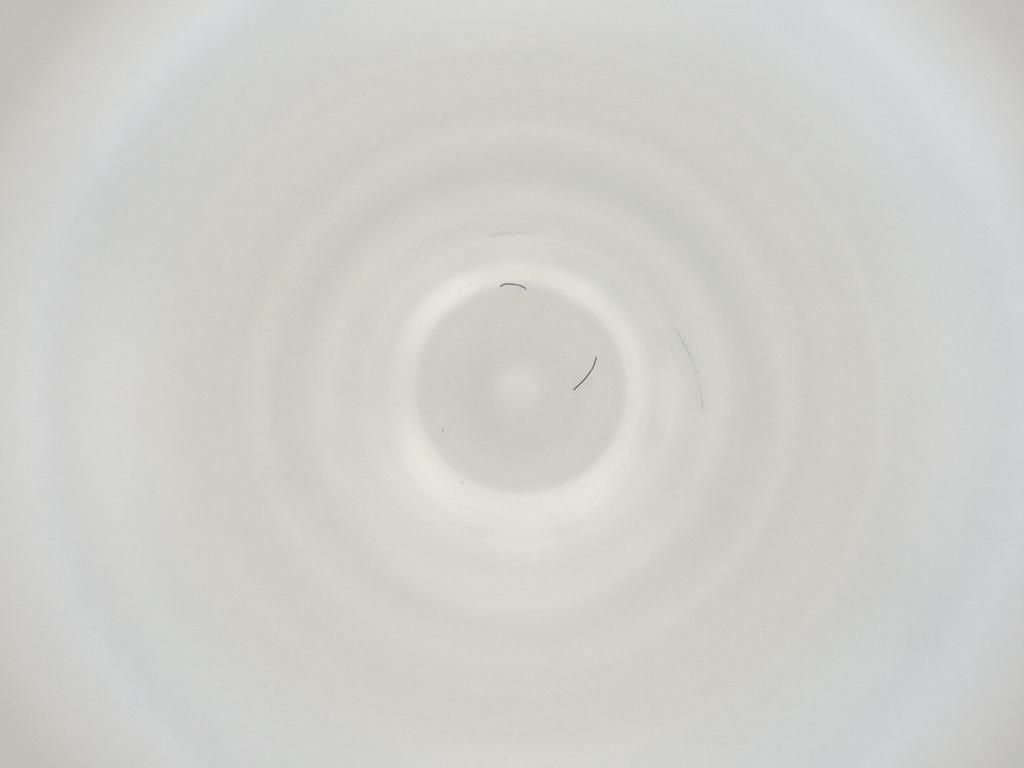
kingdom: Animalia
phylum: Arthropoda
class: Insecta
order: Diptera
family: Cecidomyiidae
